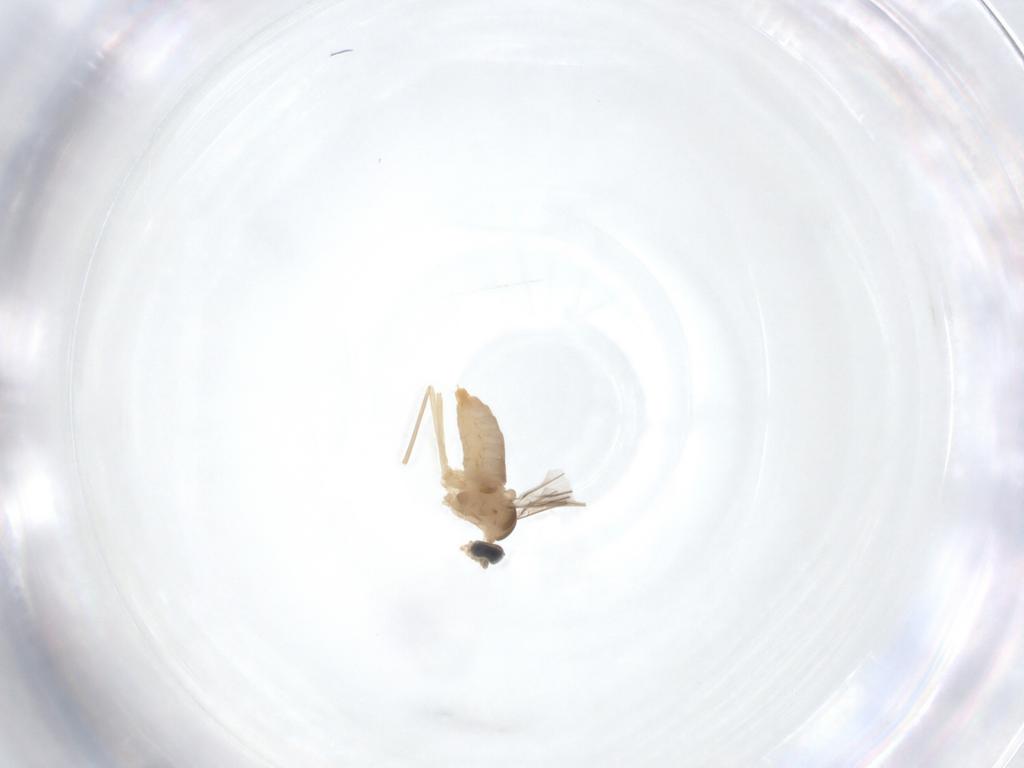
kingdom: Animalia
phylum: Arthropoda
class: Insecta
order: Diptera
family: Cecidomyiidae
